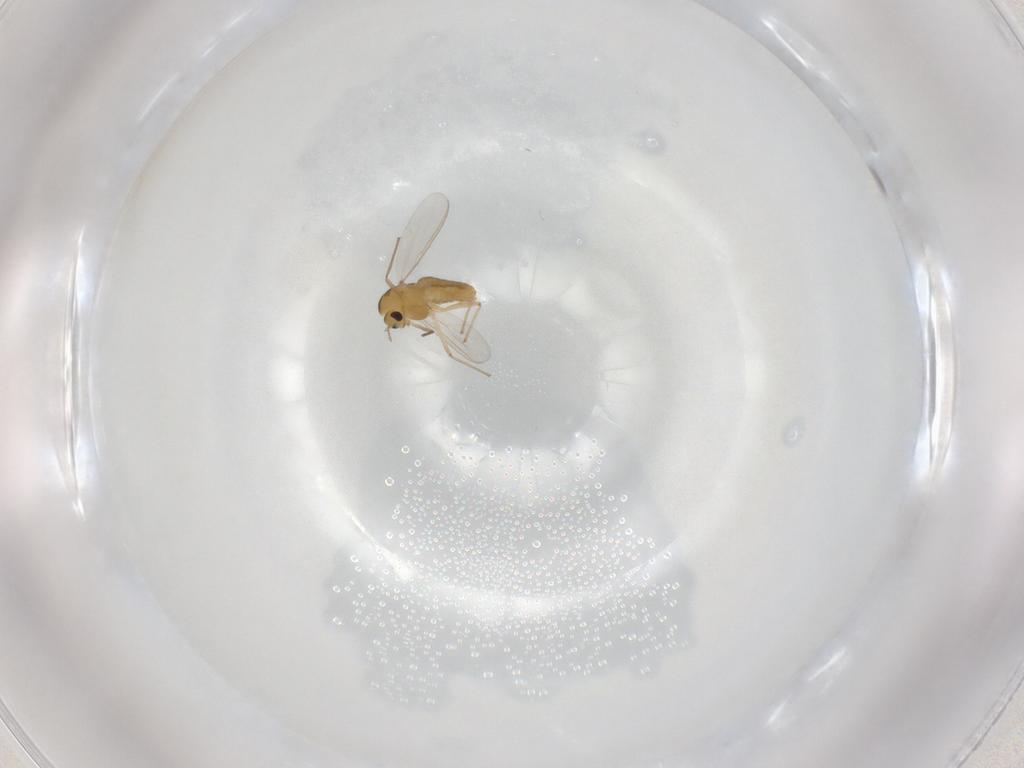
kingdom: Animalia
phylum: Arthropoda
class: Insecta
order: Diptera
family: Chironomidae
